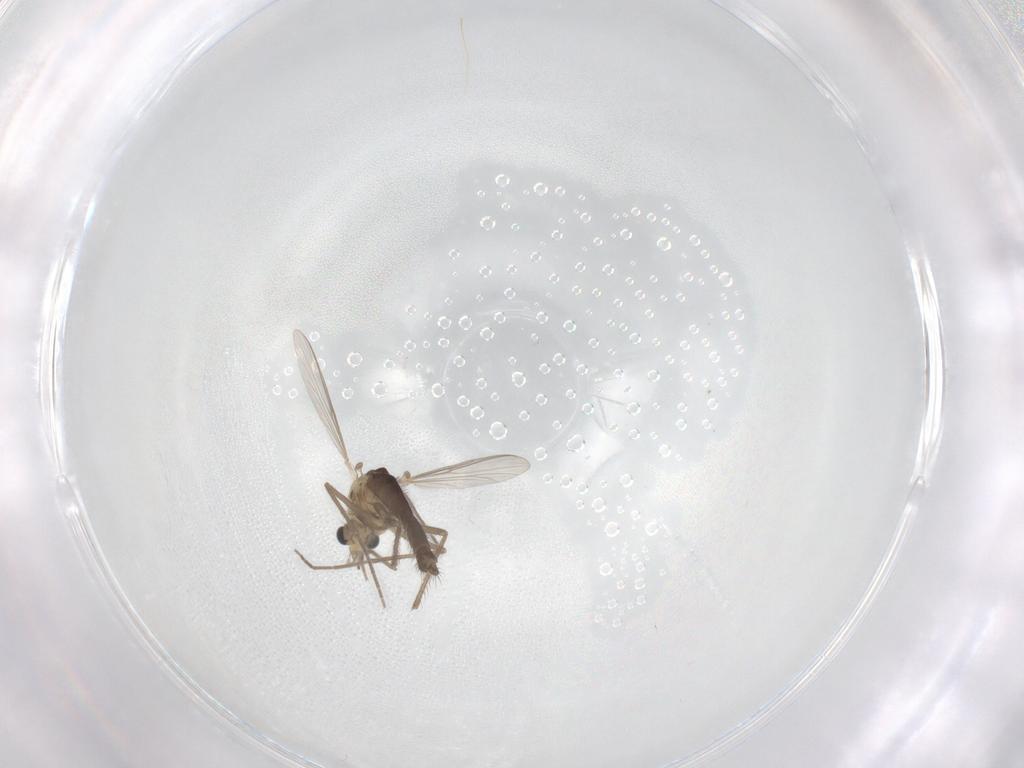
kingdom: Animalia
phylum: Arthropoda
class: Insecta
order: Diptera
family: Chironomidae
